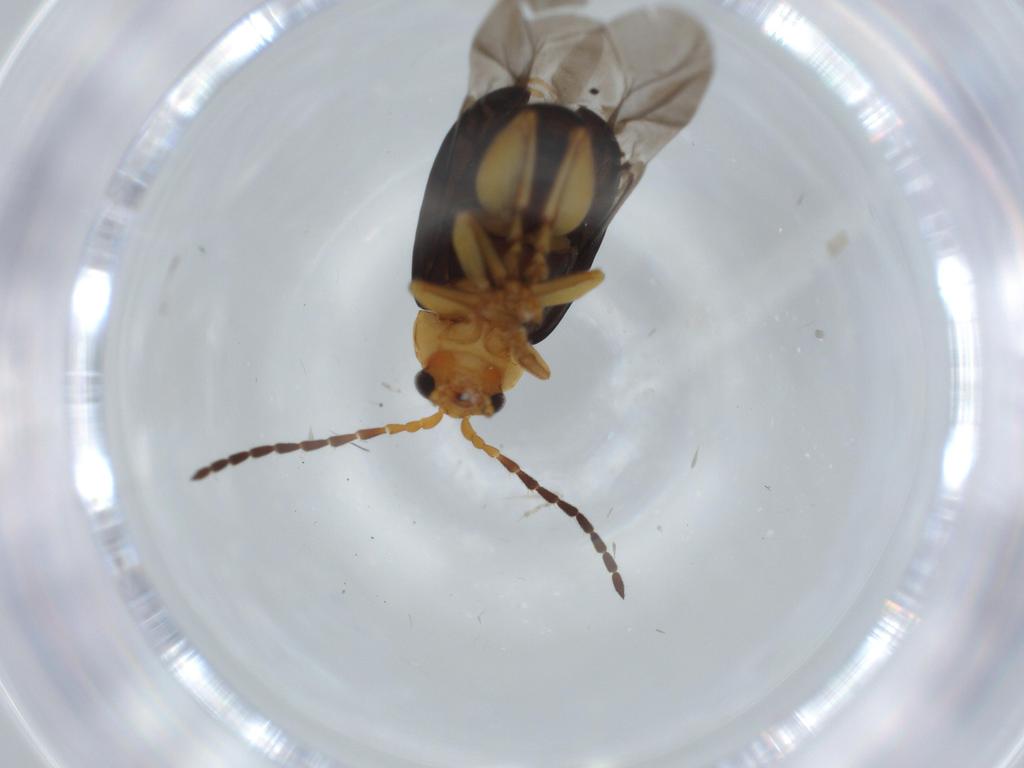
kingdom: Animalia
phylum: Arthropoda
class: Insecta
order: Coleoptera
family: Chrysomelidae
